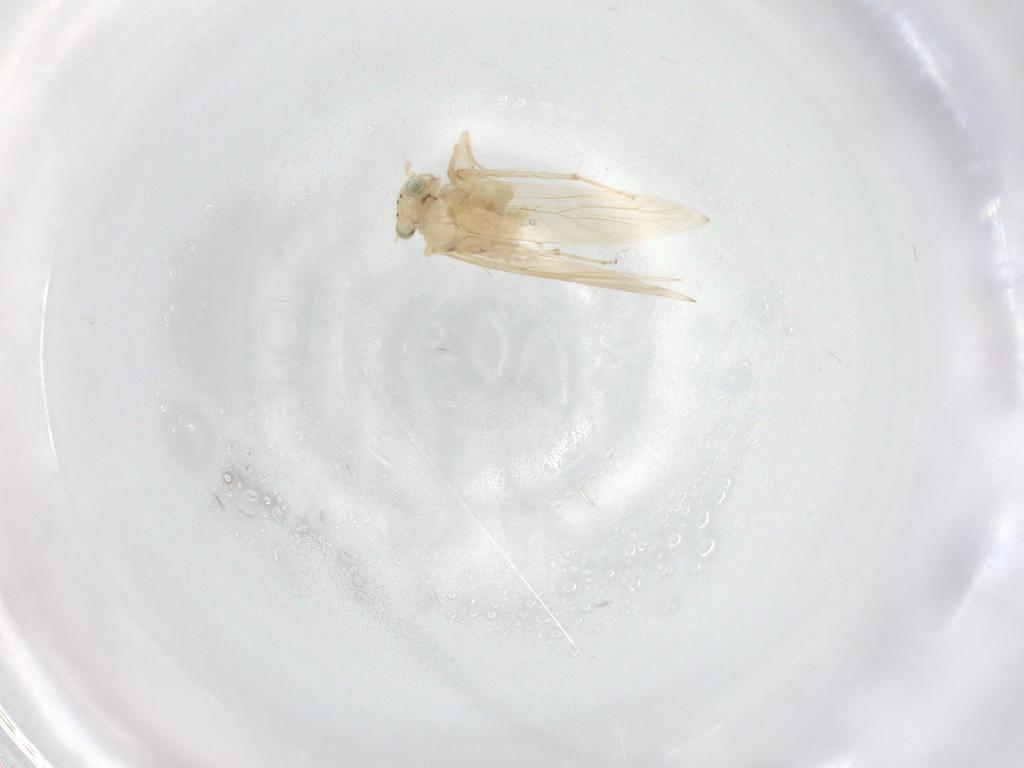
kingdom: Animalia
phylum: Arthropoda
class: Insecta
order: Psocodea
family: Lepidopsocidae
